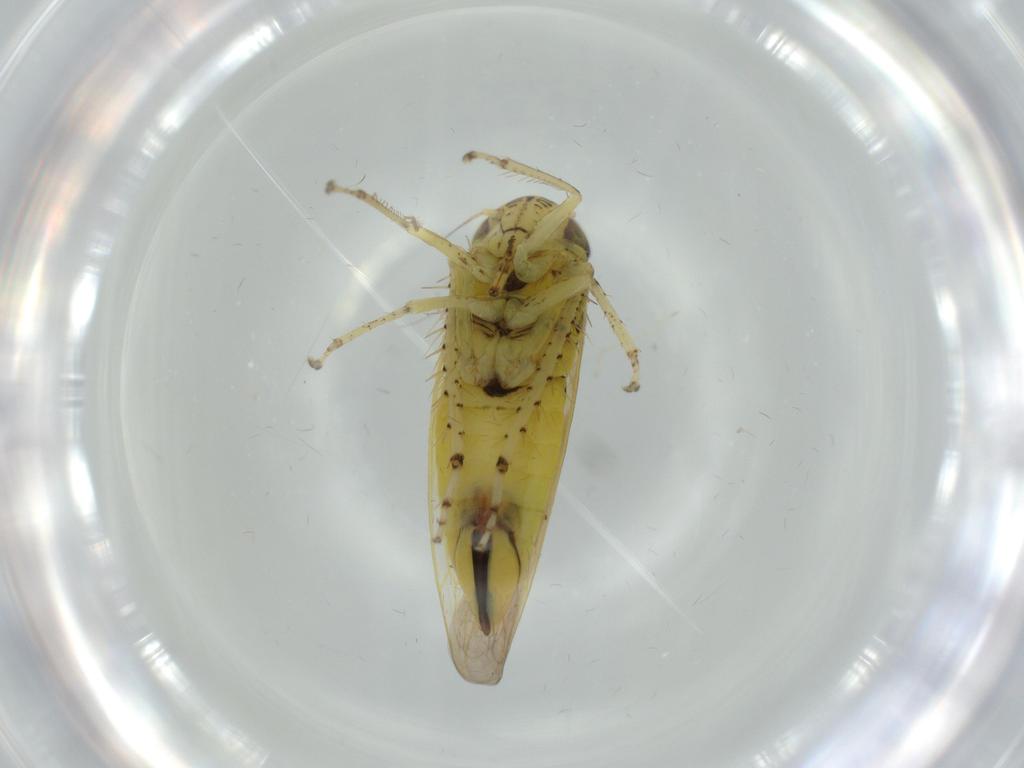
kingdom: Animalia
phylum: Arthropoda
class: Insecta
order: Hemiptera
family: Cicadellidae
